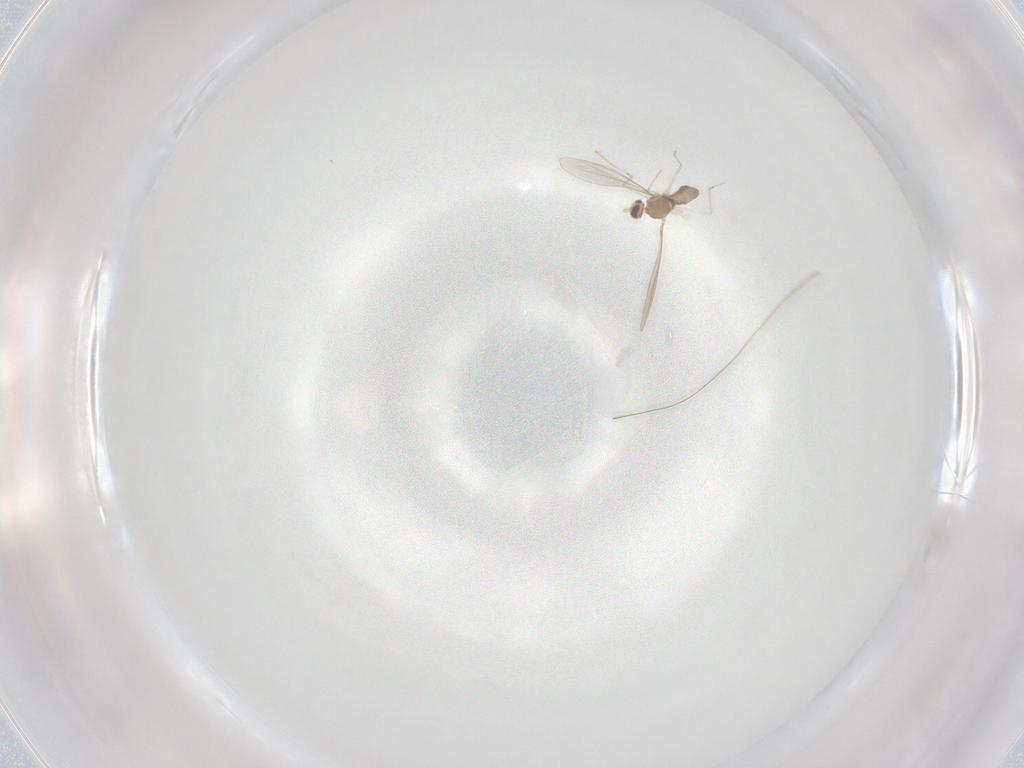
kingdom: Animalia
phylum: Arthropoda
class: Insecta
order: Diptera
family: Cecidomyiidae
